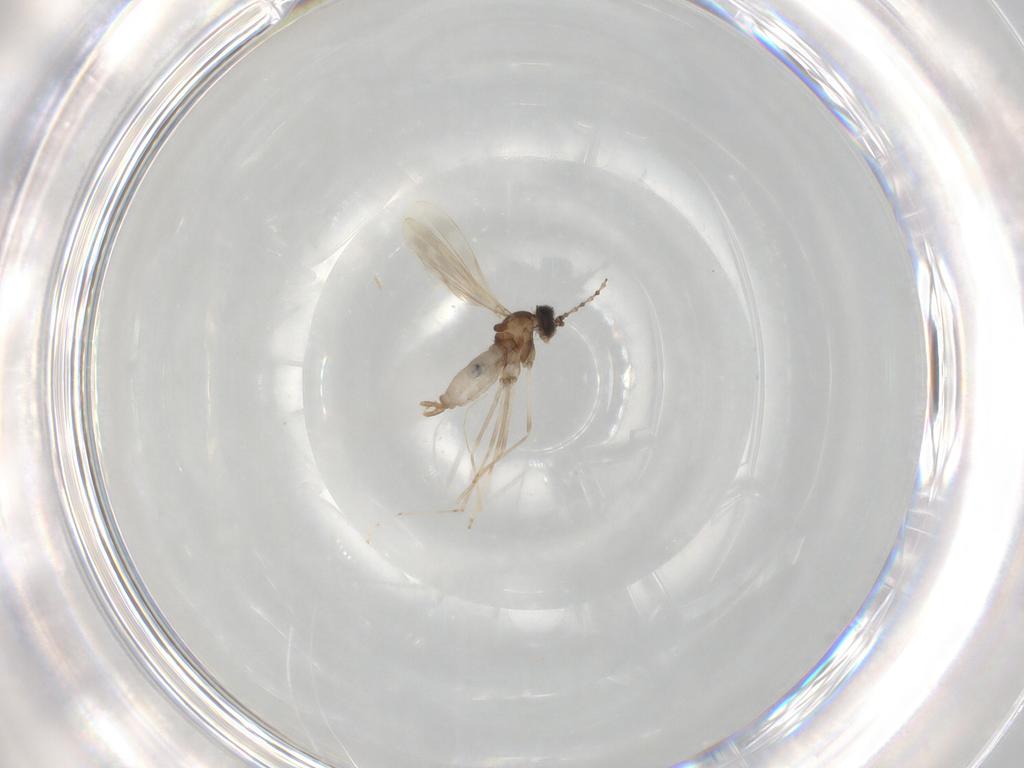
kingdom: Animalia
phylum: Arthropoda
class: Insecta
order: Diptera
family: Cecidomyiidae
